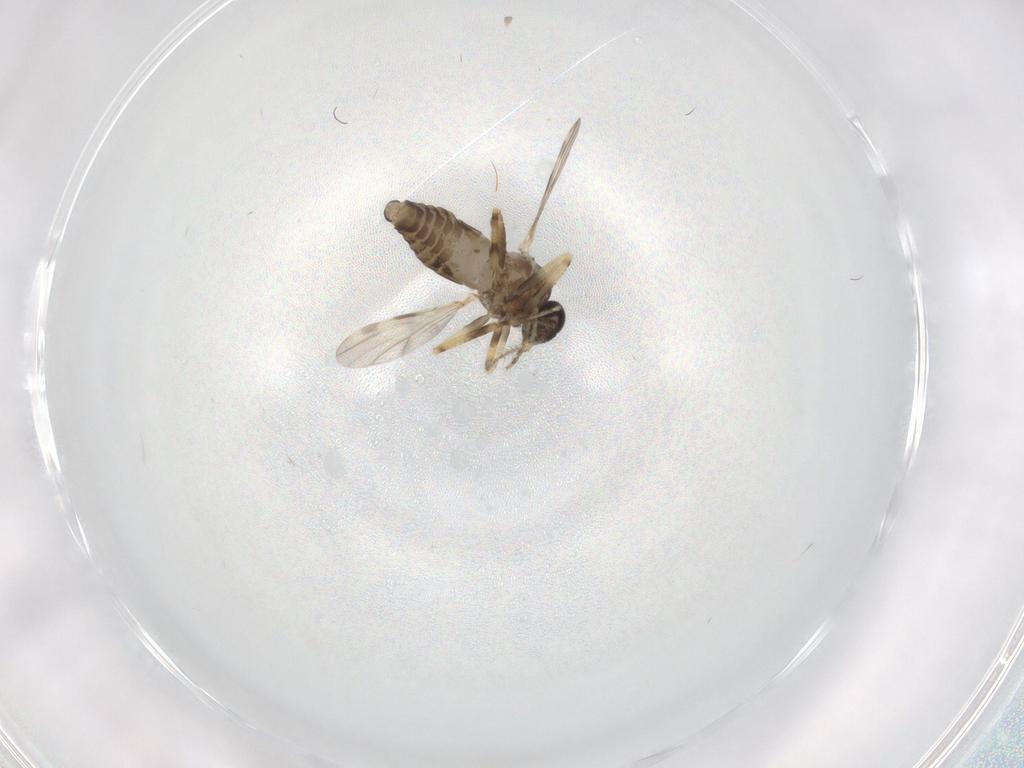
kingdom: Animalia
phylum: Arthropoda
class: Insecta
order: Diptera
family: Ceratopogonidae
